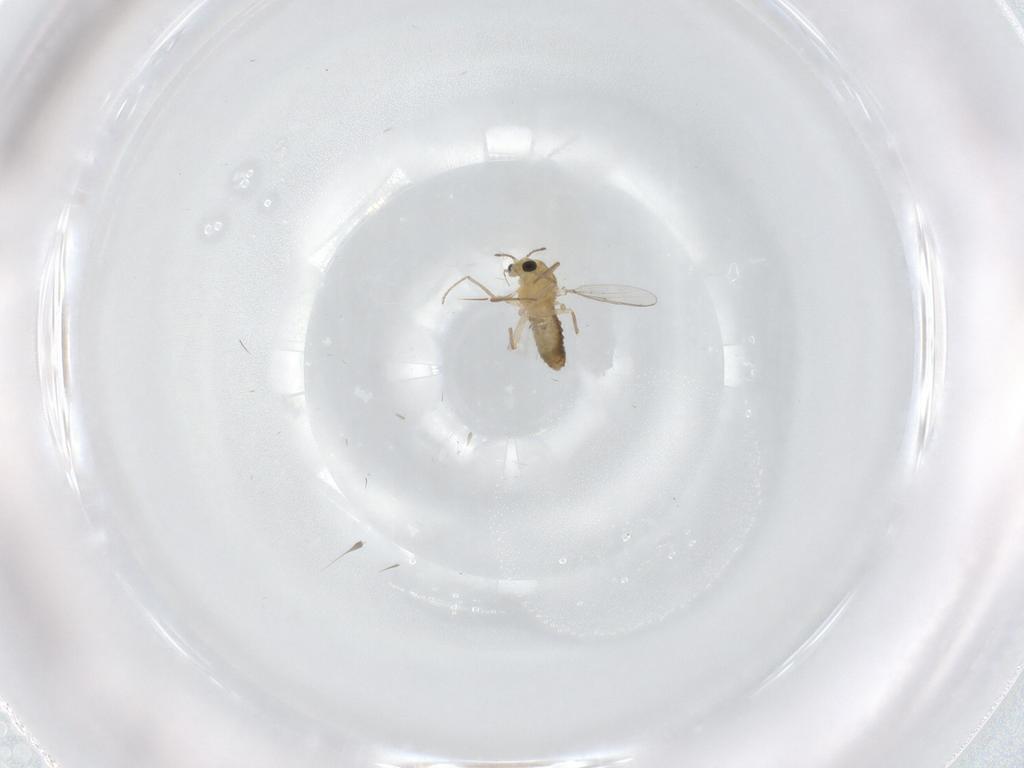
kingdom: Animalia
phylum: Arthropoda
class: Insecta
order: Diptera
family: Chironomidae
